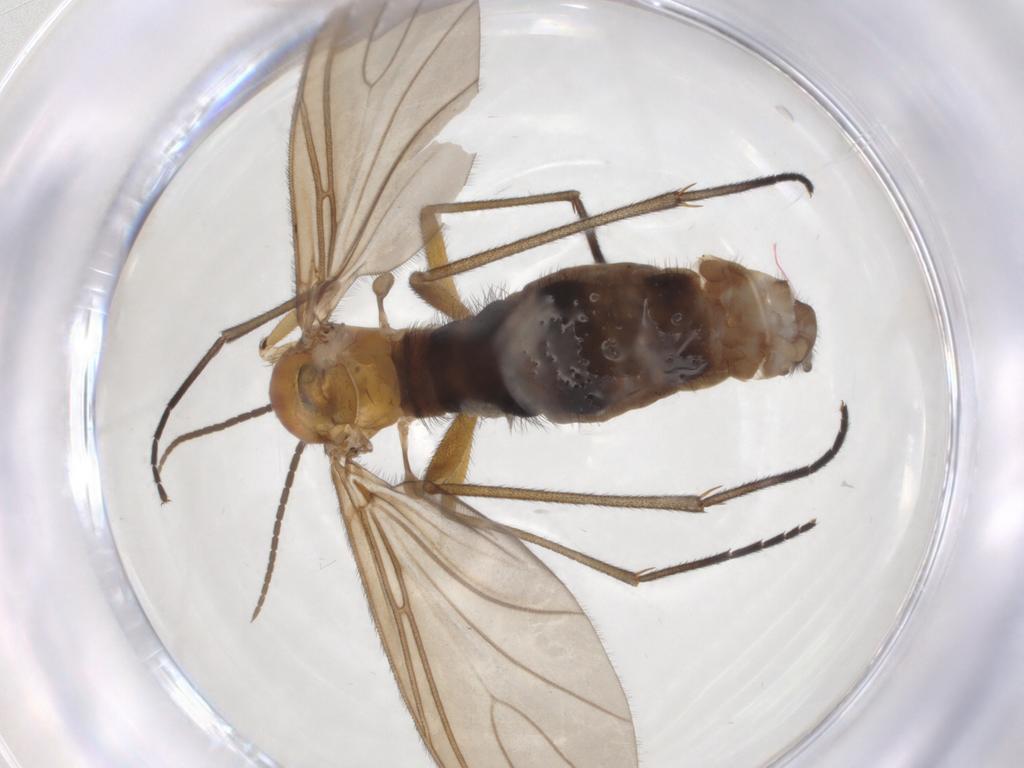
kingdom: Animalia
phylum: Arthropoda
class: Insecta
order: Diptera
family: Sciaridae
